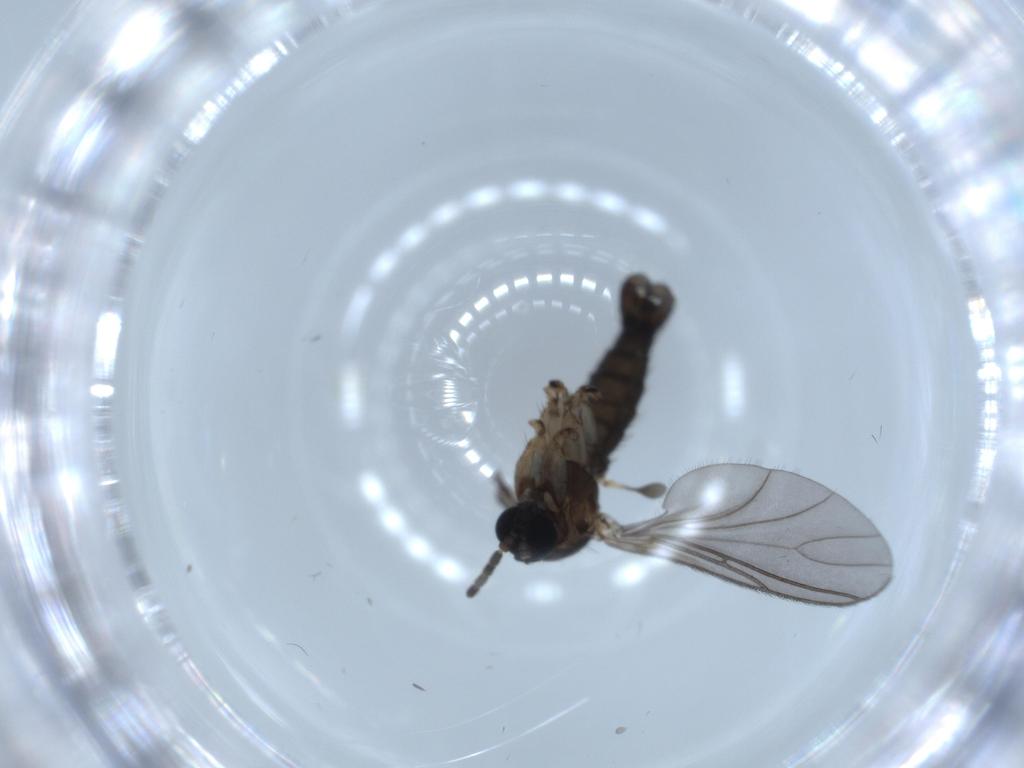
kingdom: Animalia
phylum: Arthropoda
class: Insecta
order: Diptera
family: Sciaridae
